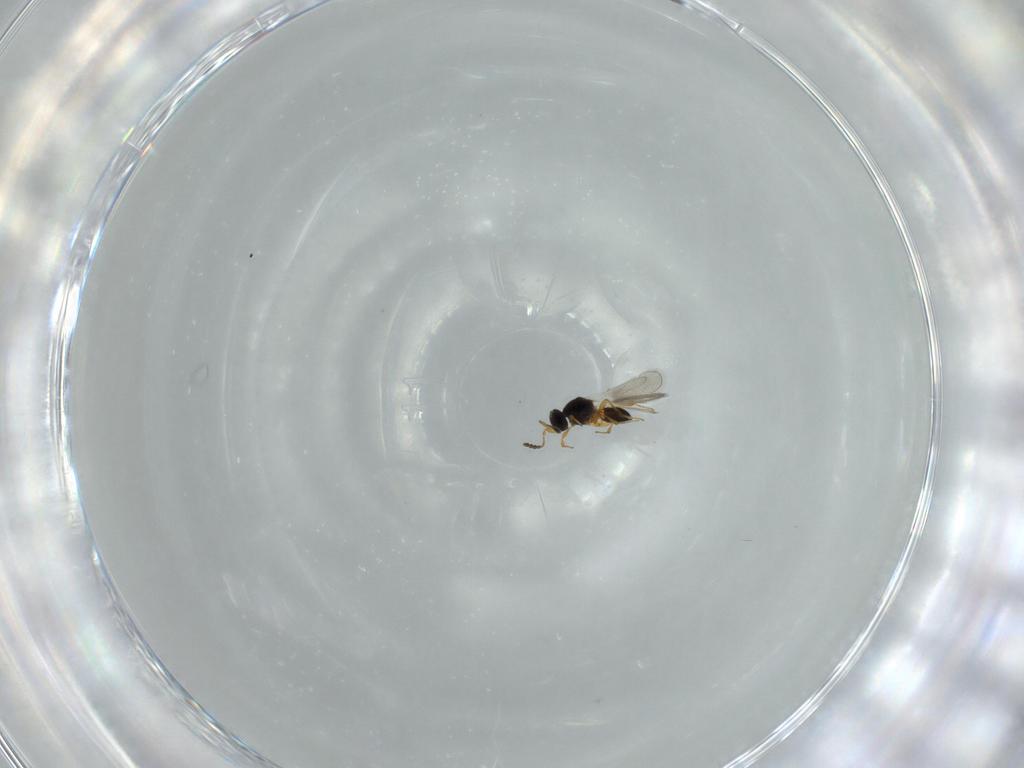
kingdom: Animalia
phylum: Arthropoda
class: Insecta
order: Hymenoptera
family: Platygastridae
